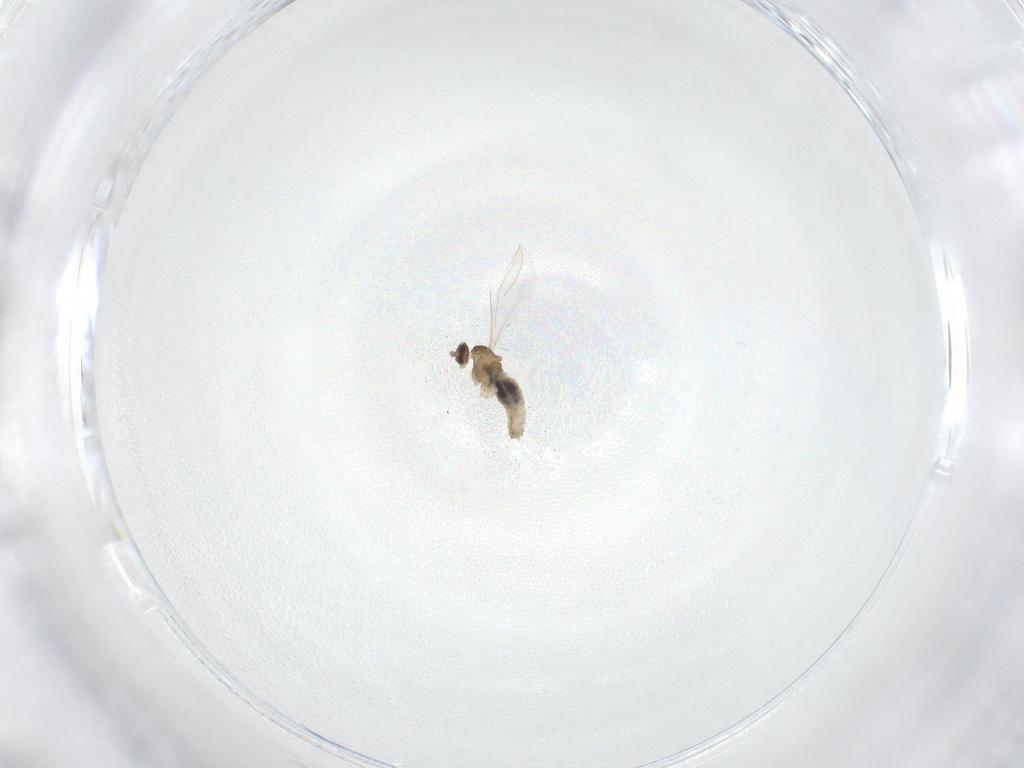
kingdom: Animalia
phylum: Arthropoda
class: Insecta
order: Diptera
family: Cecidomyiidae
